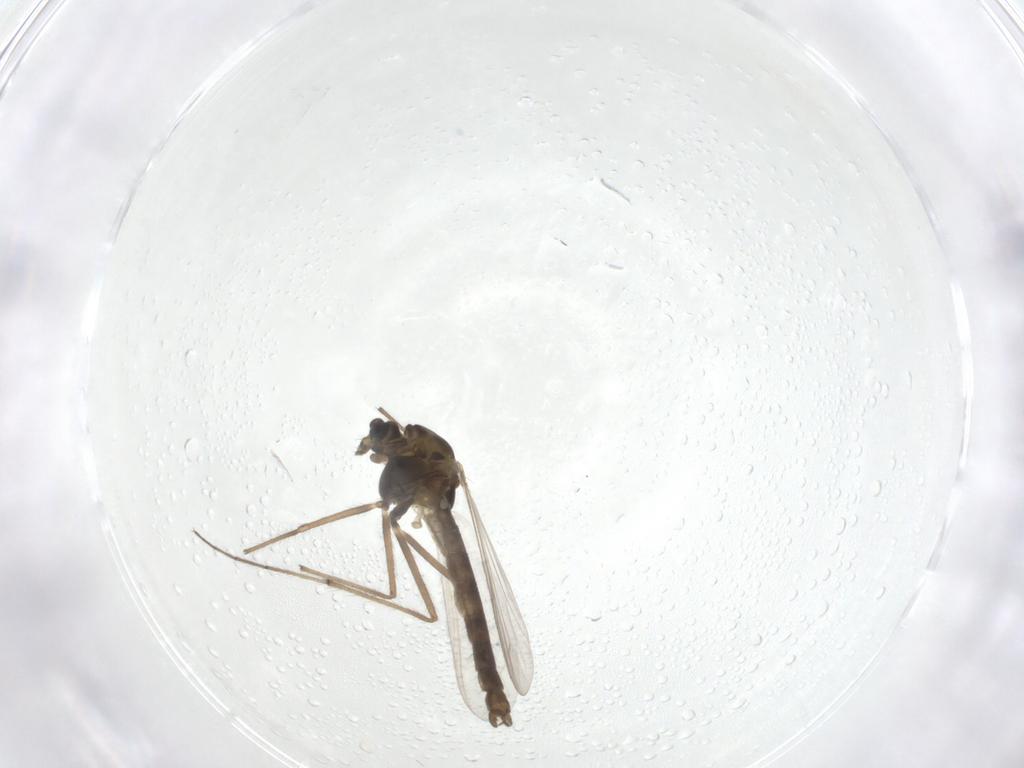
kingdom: Animalia
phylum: Arthropoda
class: Insecta
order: Diptera
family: Chironomidae
